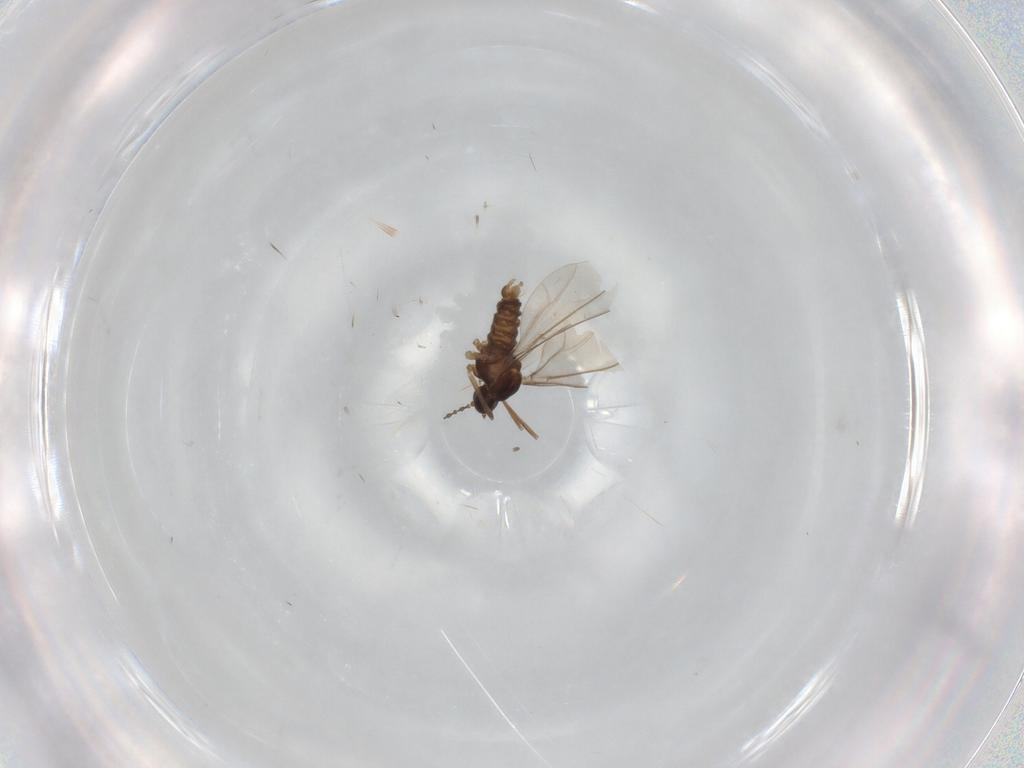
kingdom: Animalia
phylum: Arthropoda
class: Insecta
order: Diptera
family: Cecidomyiidae
